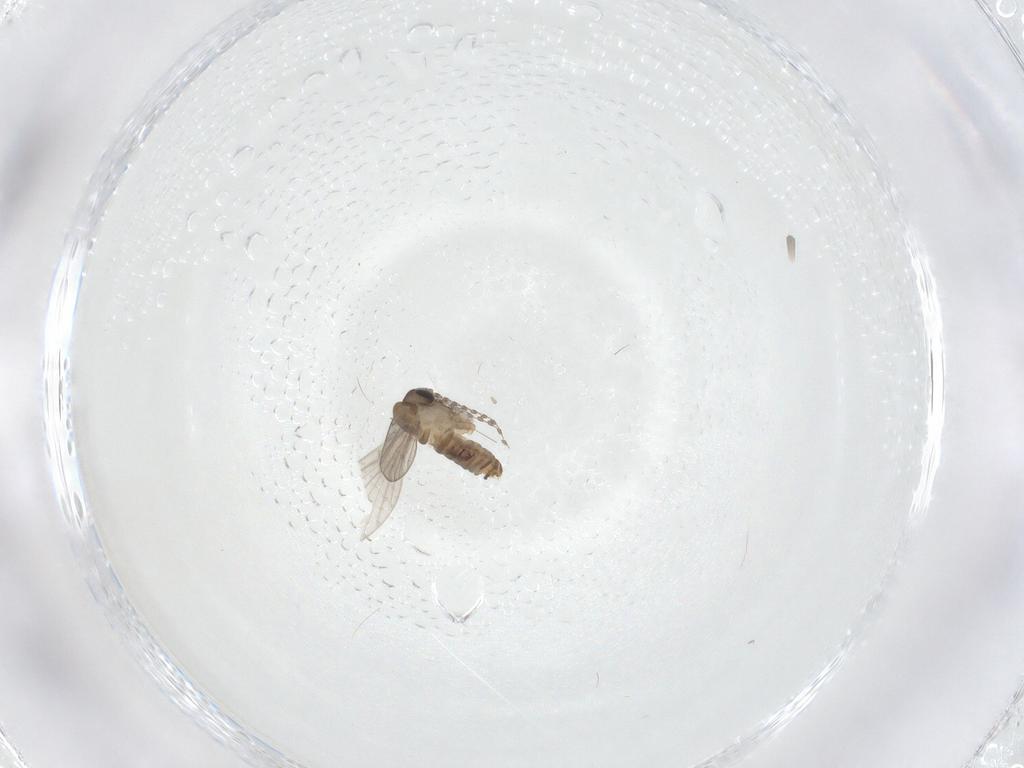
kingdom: Animalia
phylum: Arthropoda
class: Insecta
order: Diptera
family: Psychodidae
